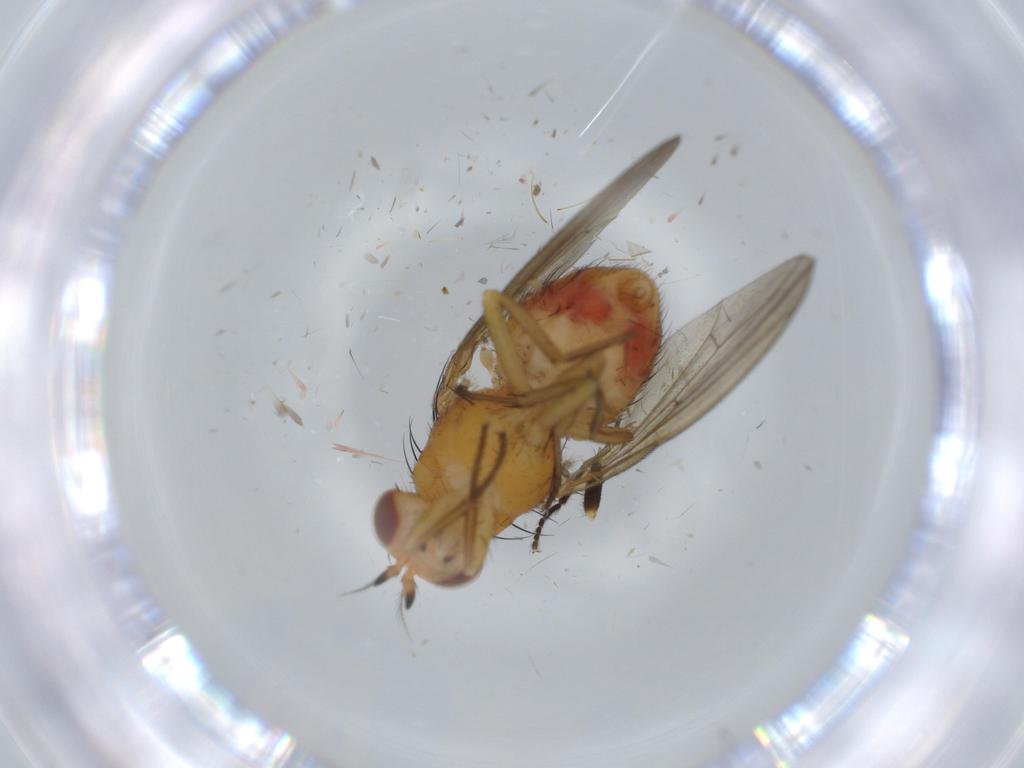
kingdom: Animalia
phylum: Arthropoda
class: Insecta
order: Diptera
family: Lauxaniidae
